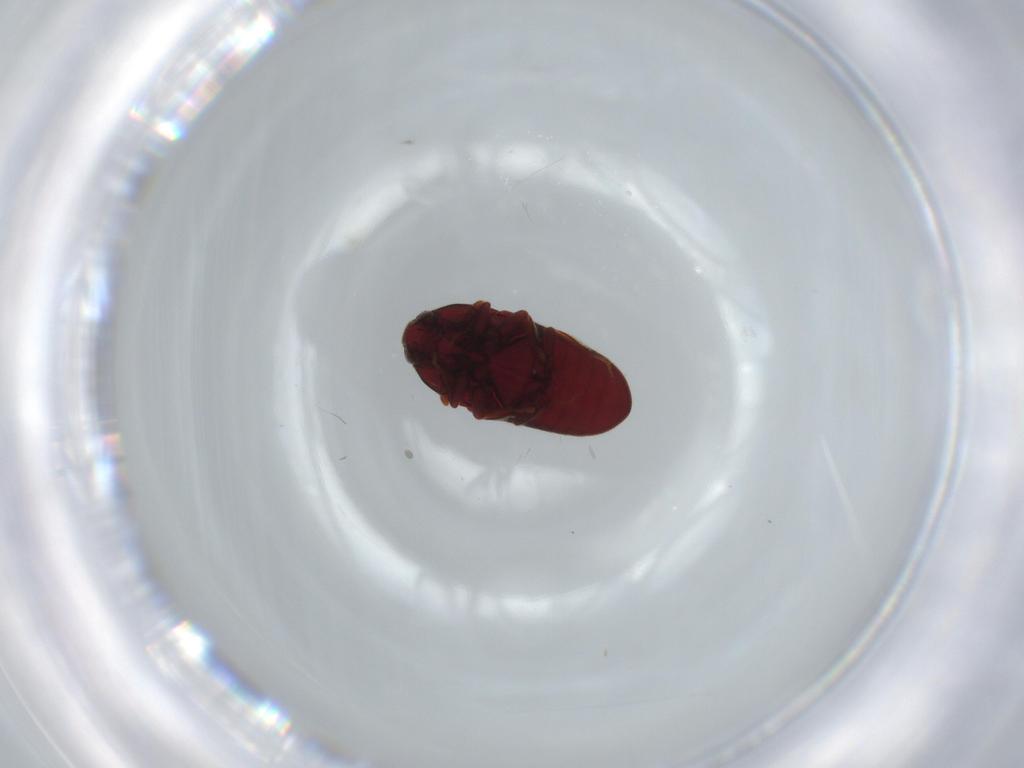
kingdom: Animalia
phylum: Arthropoda
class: Insecta
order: Coleoptera
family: Throscidae
